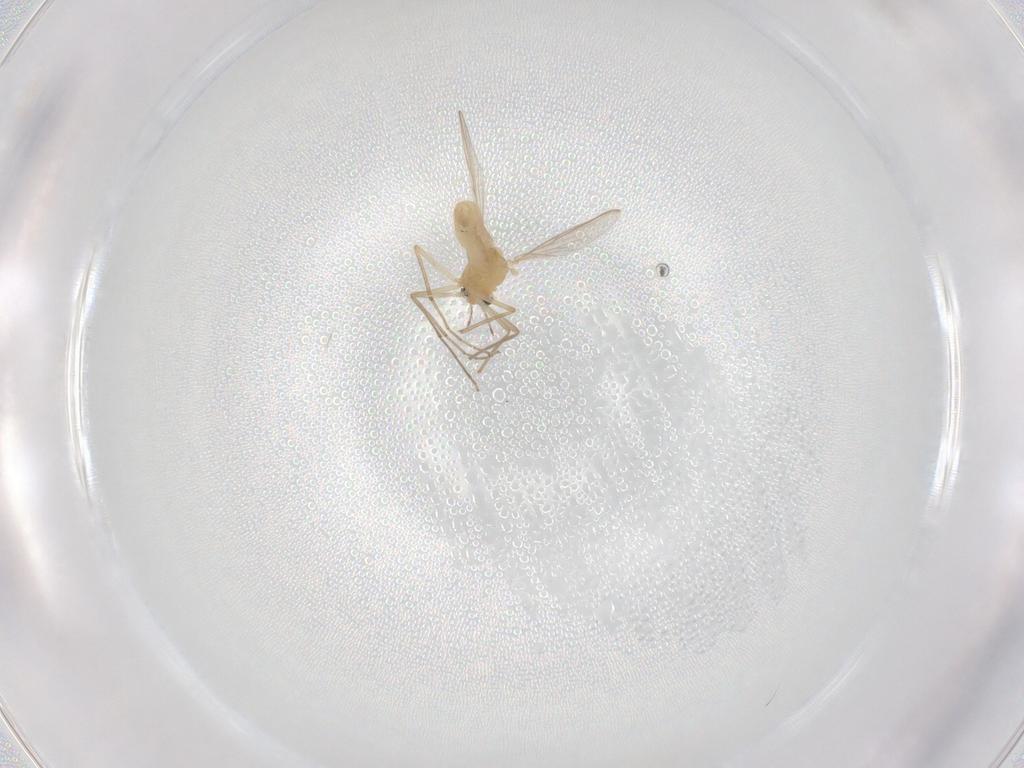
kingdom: Animalia
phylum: Arthropoda
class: Insecta
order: Diptera
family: Chironomidae
